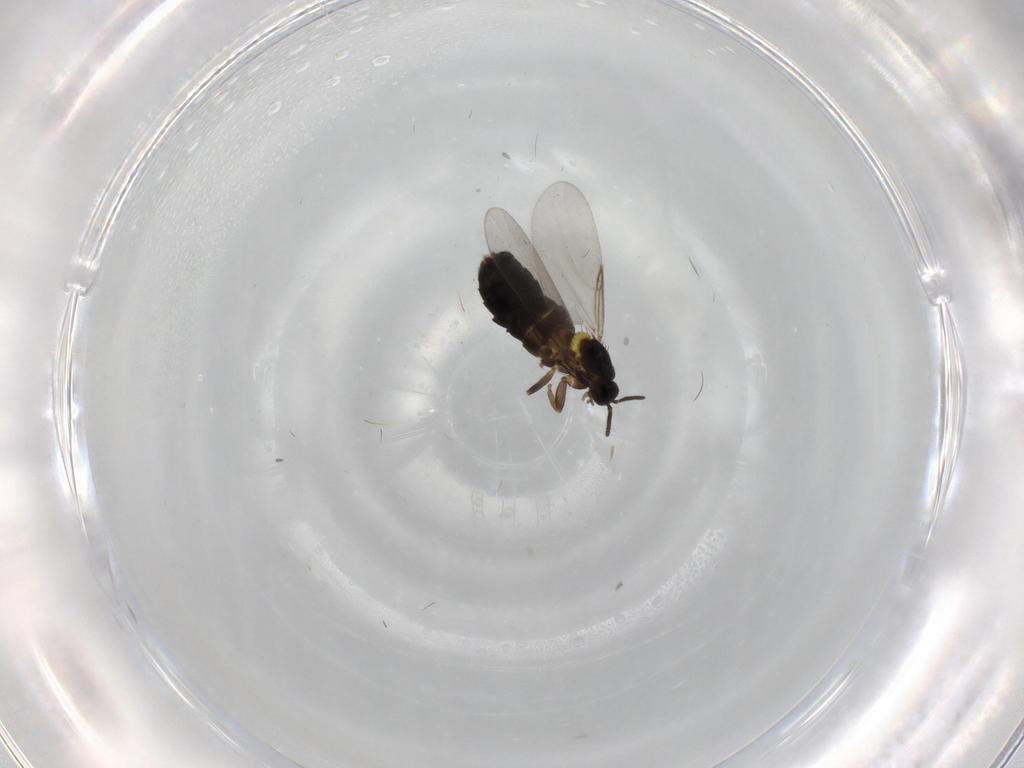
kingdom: Animalia
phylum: Arthropoda
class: Insecta
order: Diptera
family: Scatopsidae
